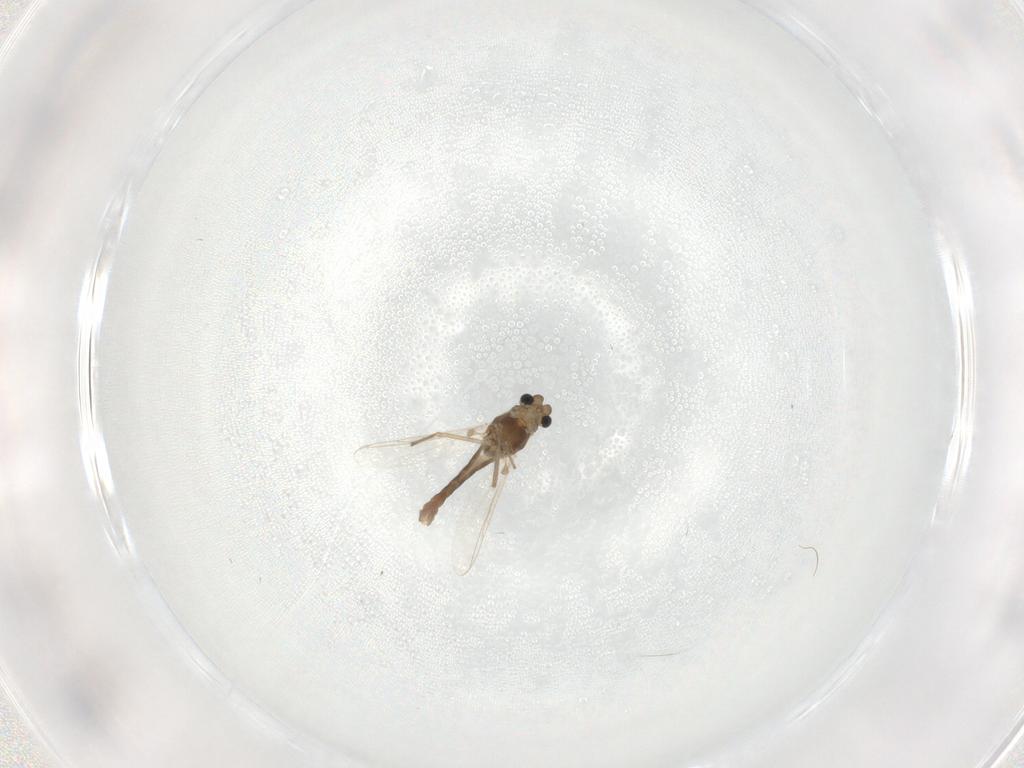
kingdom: Animalia
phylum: Arthropoda
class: Insecta
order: Diptera
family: Chironomidae
